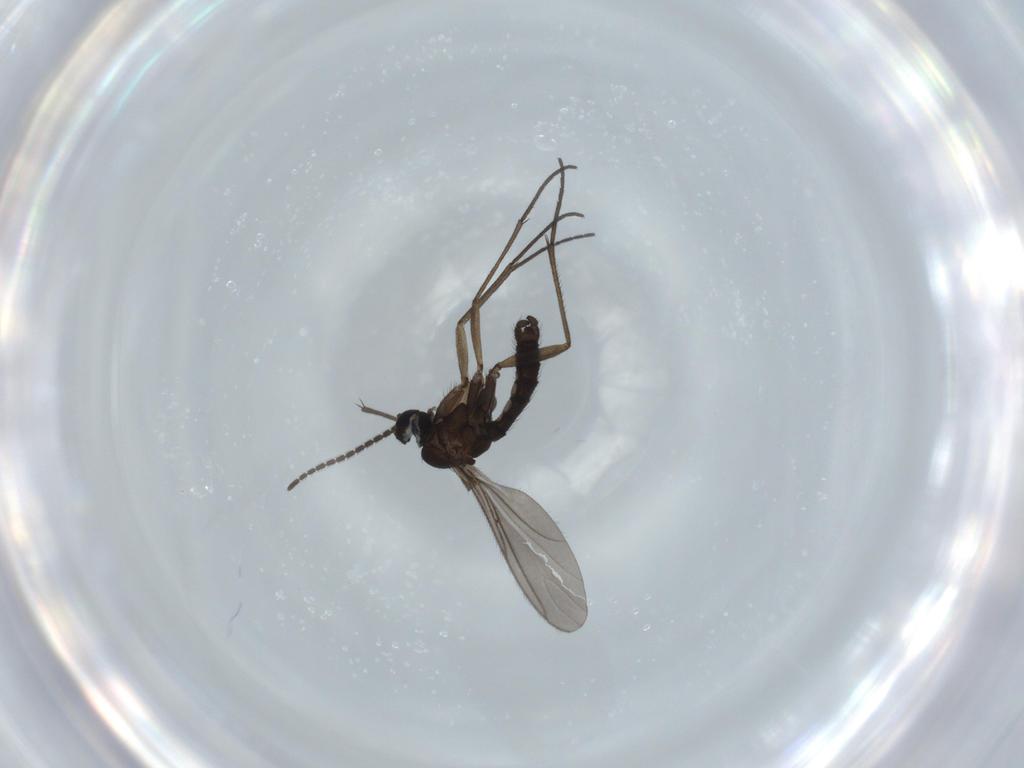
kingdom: Animalia
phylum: Arthropoda
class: Insecta
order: Diptera
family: Sciaridae
